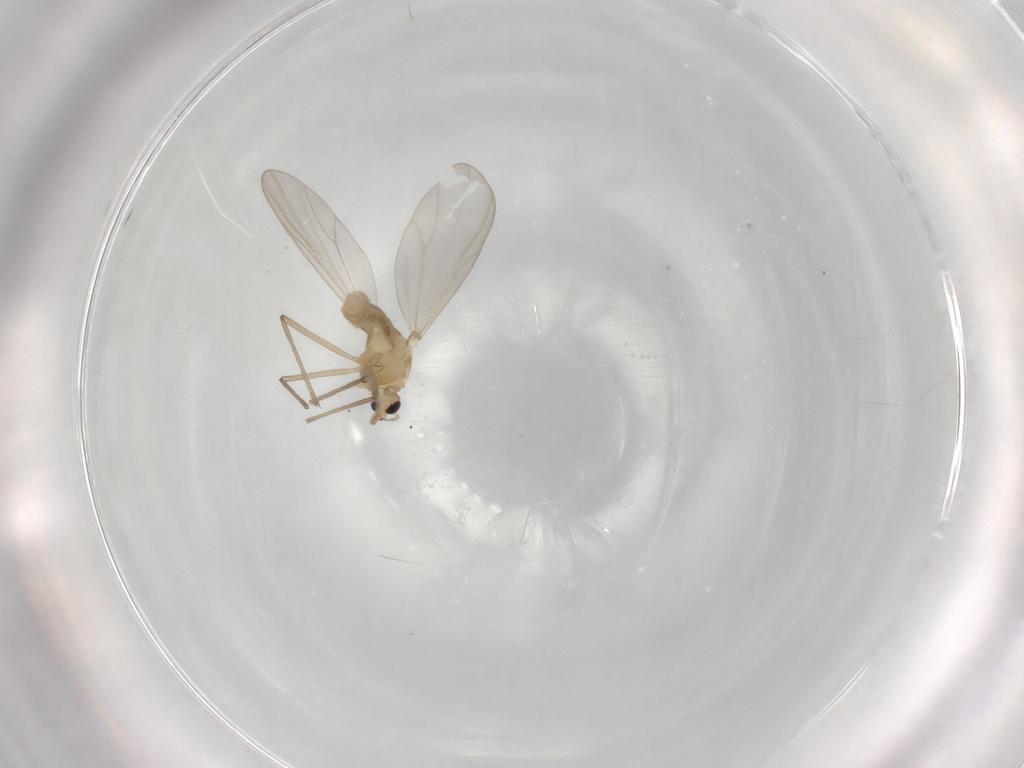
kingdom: Animalia
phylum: Arthropoda
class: Insecta
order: Diptera
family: Chironomidae
